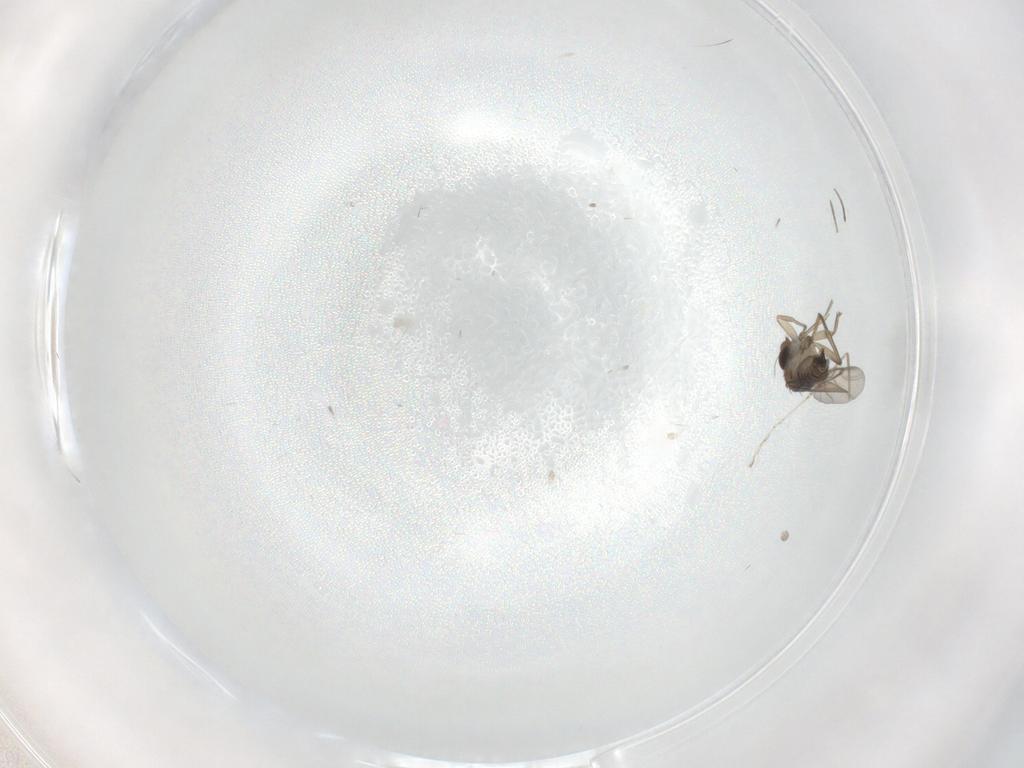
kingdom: Animalia
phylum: Arthropoda
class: Insecta
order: Diptera
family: Phoridae
